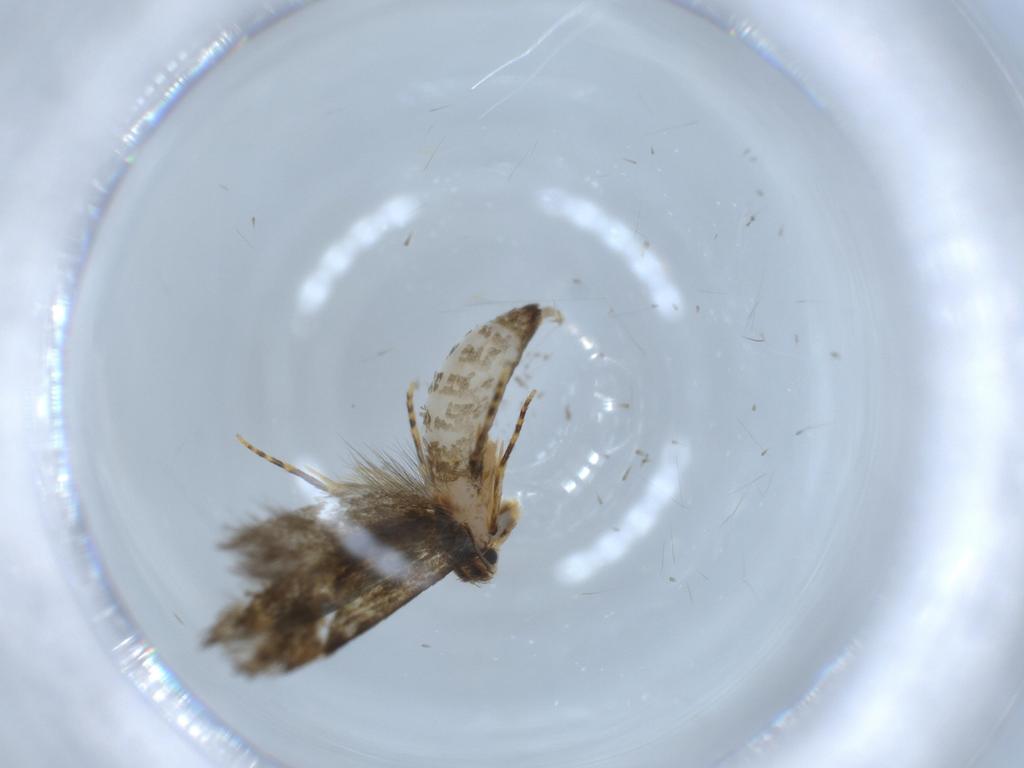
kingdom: Animalia
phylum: Arthropoda
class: Insecta
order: Lepidoptera
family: Tineidae
